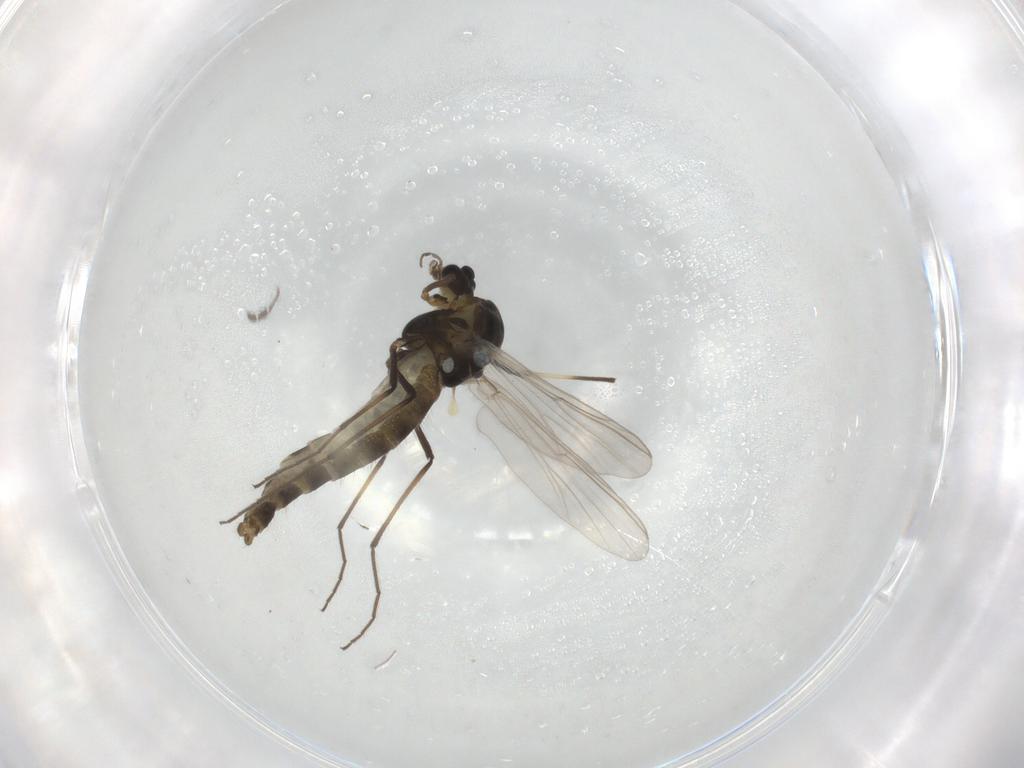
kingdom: Animalia
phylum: Arthropoda
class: Insecta
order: Diptera
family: Chironomidae
